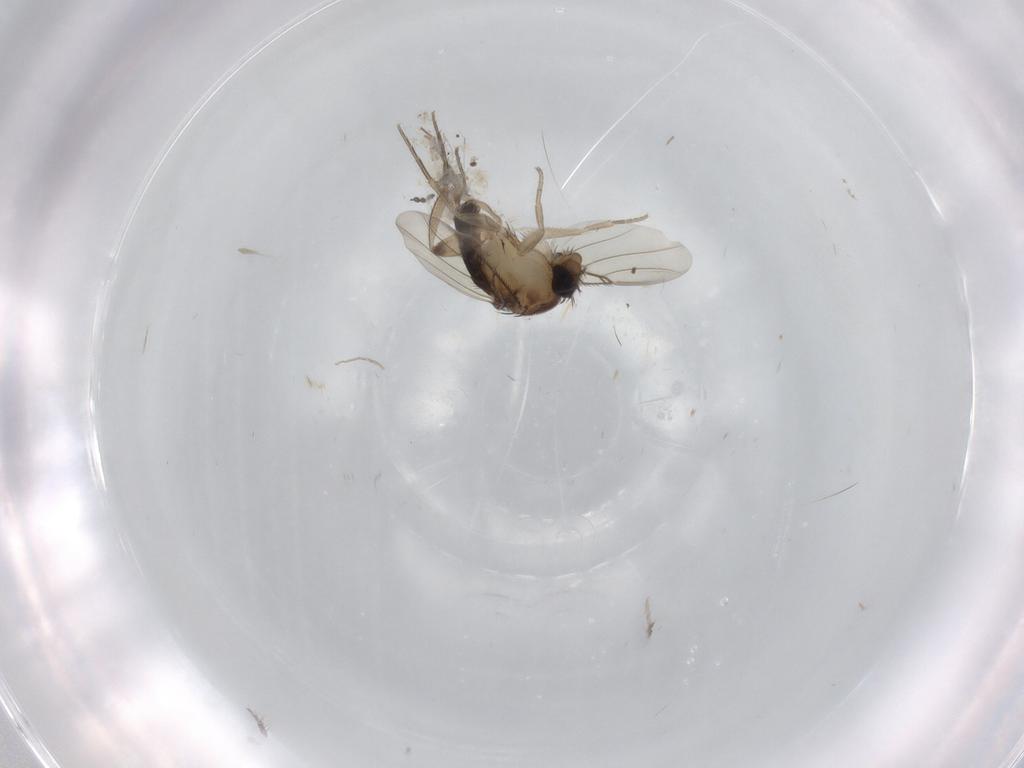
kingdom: Animalia
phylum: Arthropoda
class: Insecta
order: Diptera
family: Phoridae
